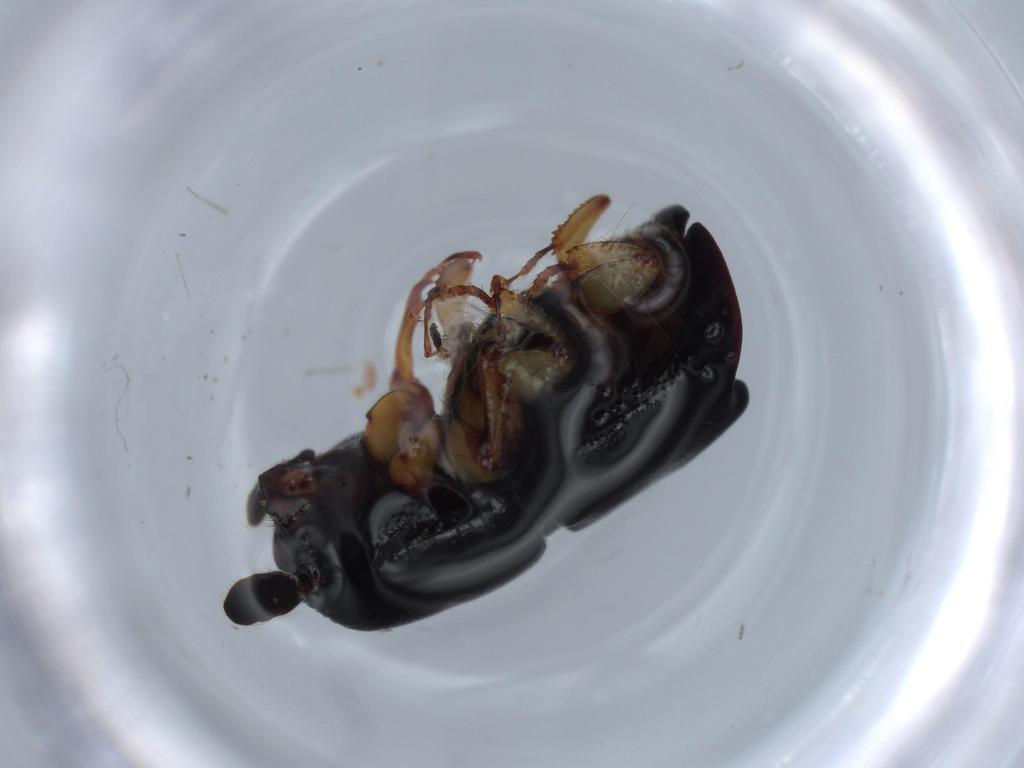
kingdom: Animalia
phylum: Arthropoda
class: Insecta
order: Coleoptera
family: Curculionidae
